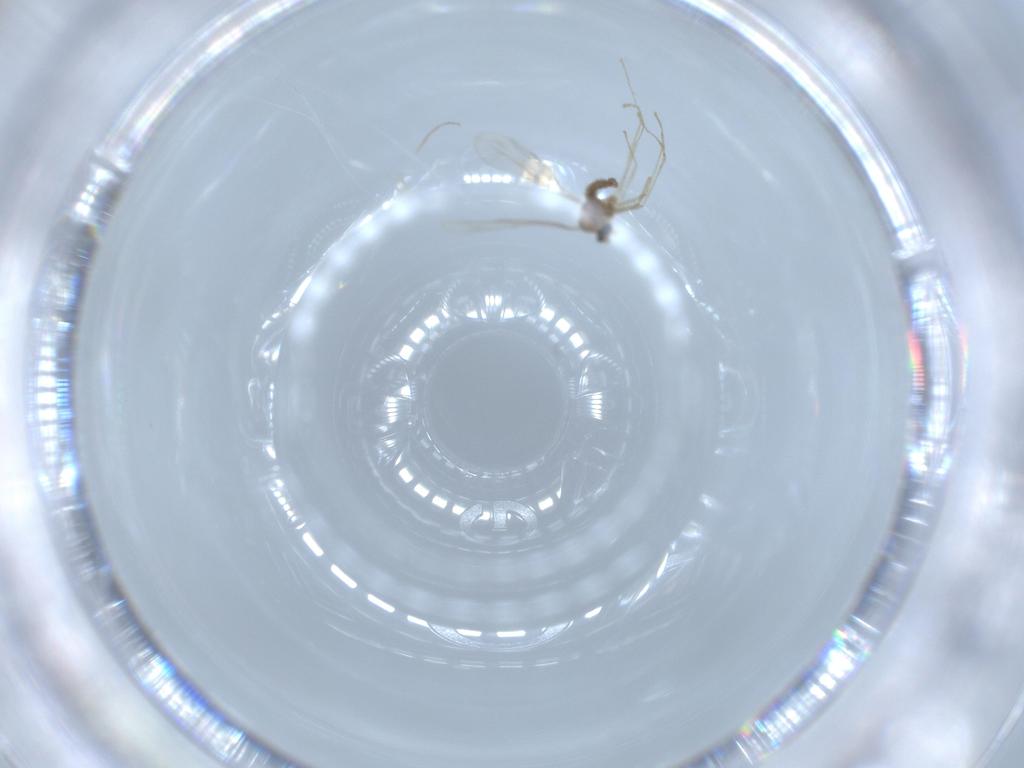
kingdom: Animalia
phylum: Arthropoda
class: Insecta
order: Diptera
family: Cecidomyiidae
